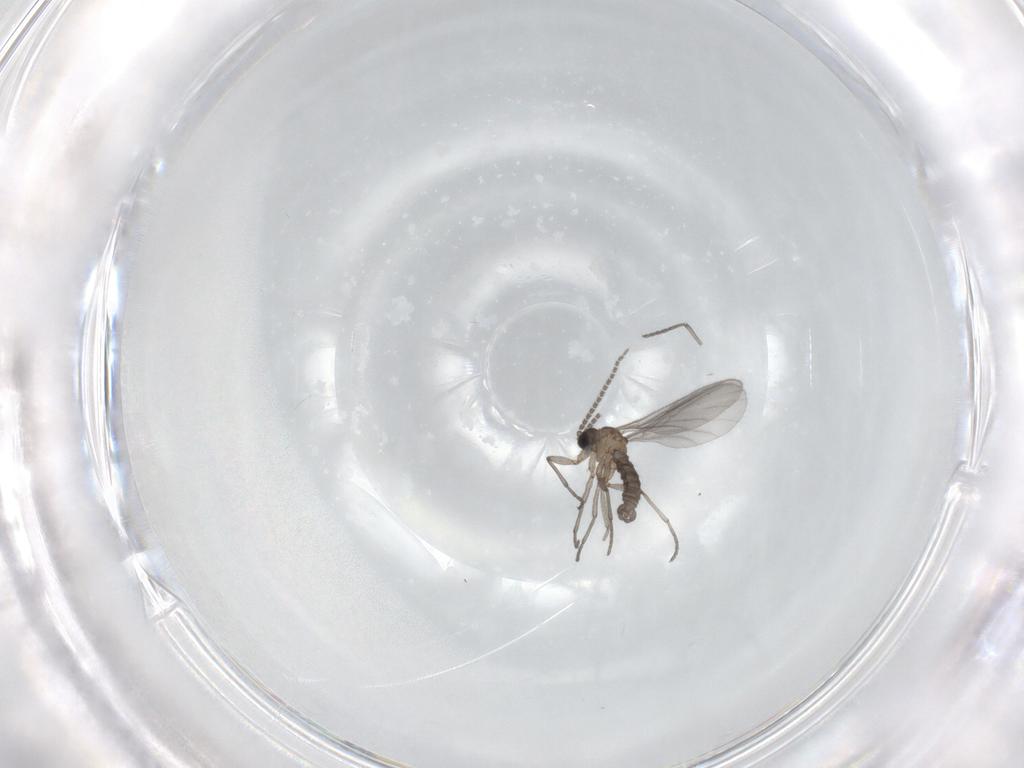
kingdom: Animalia
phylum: Arthropoda
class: Insecta
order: Diptera
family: Sciaridae
